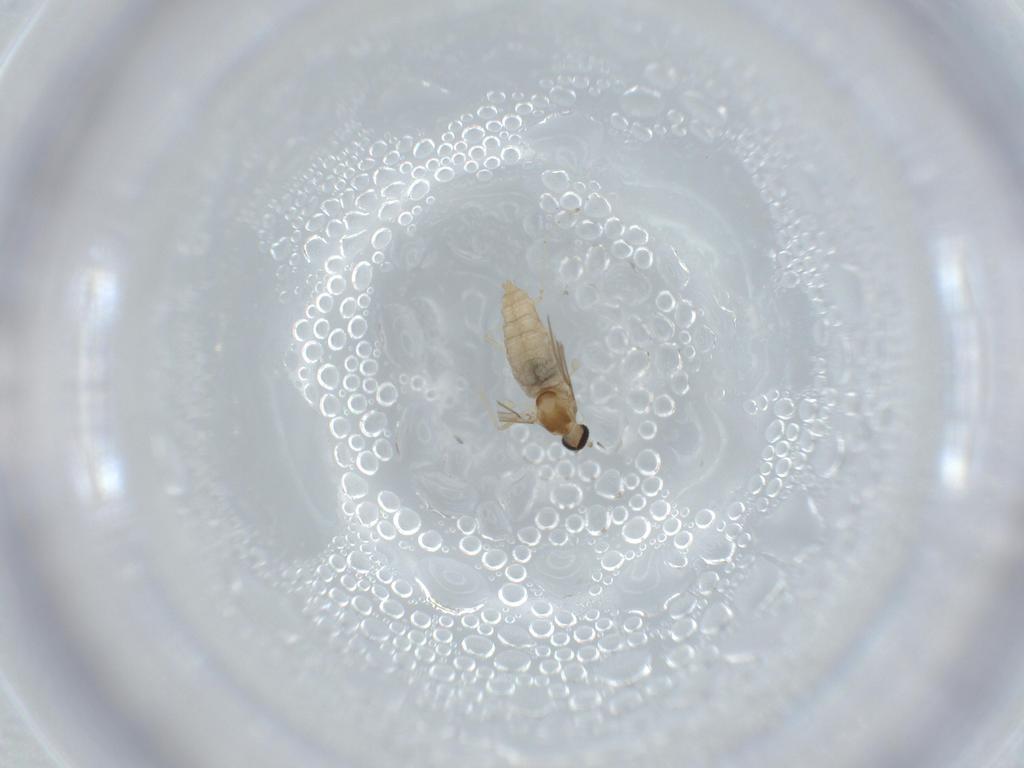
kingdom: Animalia
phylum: Arthropoda
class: Insecta
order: Diptera
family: Cecidomyiidae
